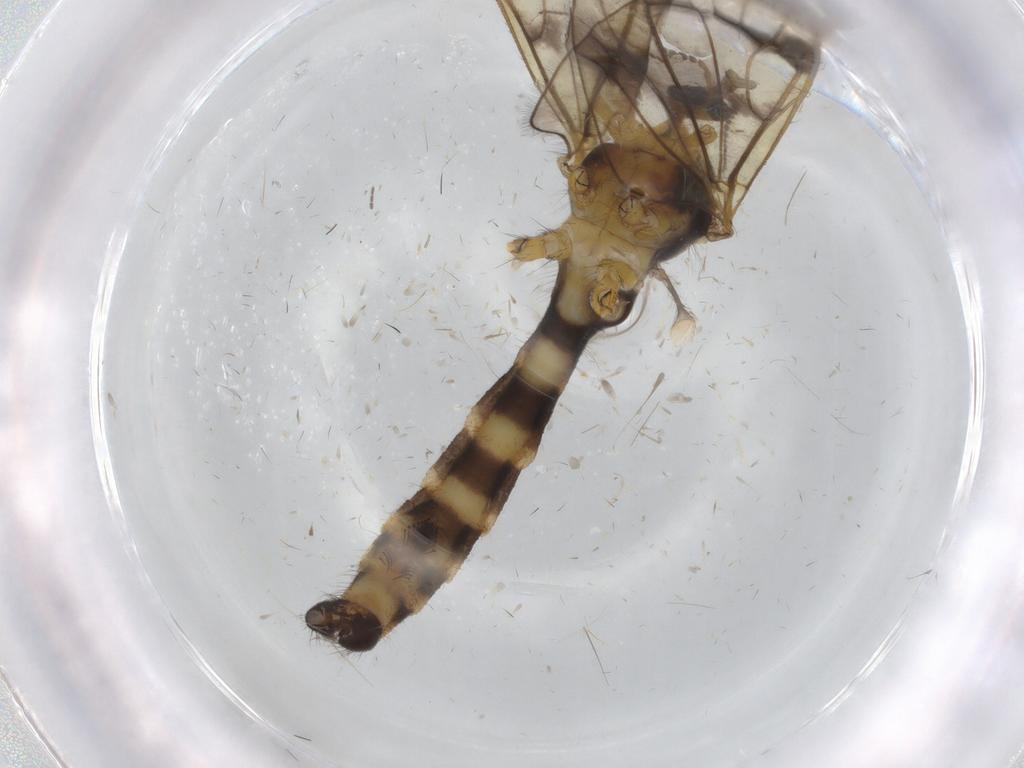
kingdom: Animalia
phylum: Arthropoda
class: Insecta
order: Diptera
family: Limoniidae
